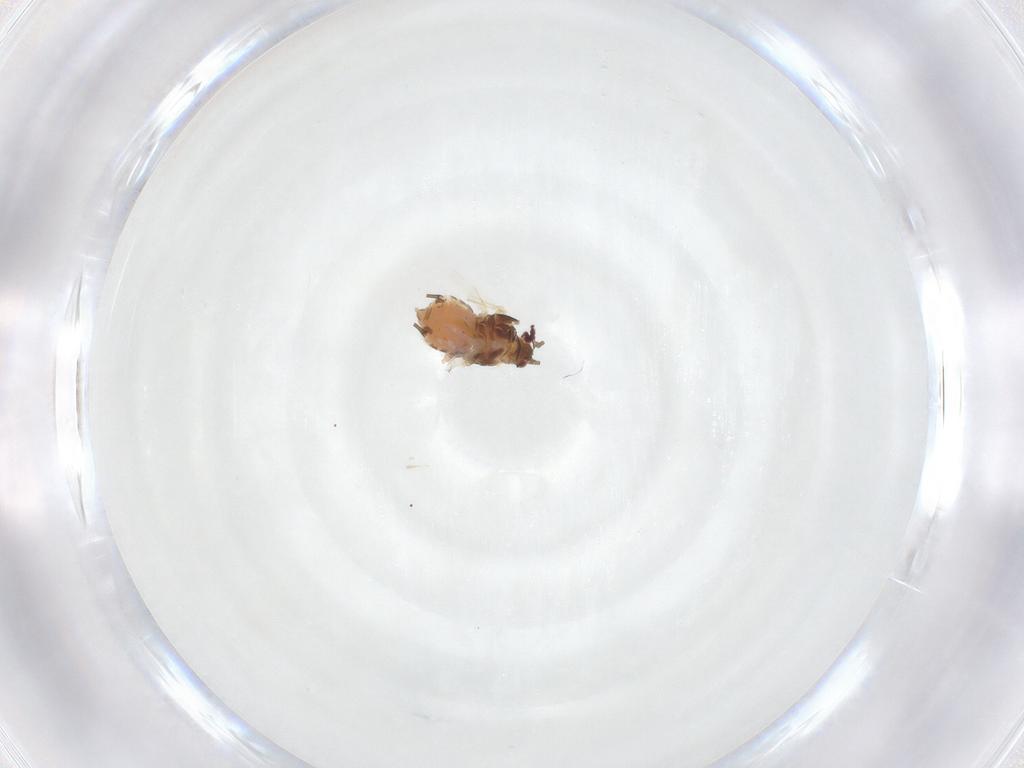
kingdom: Animalia
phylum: Arthropoda
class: Insecta
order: Hemiptera
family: Aphididae
